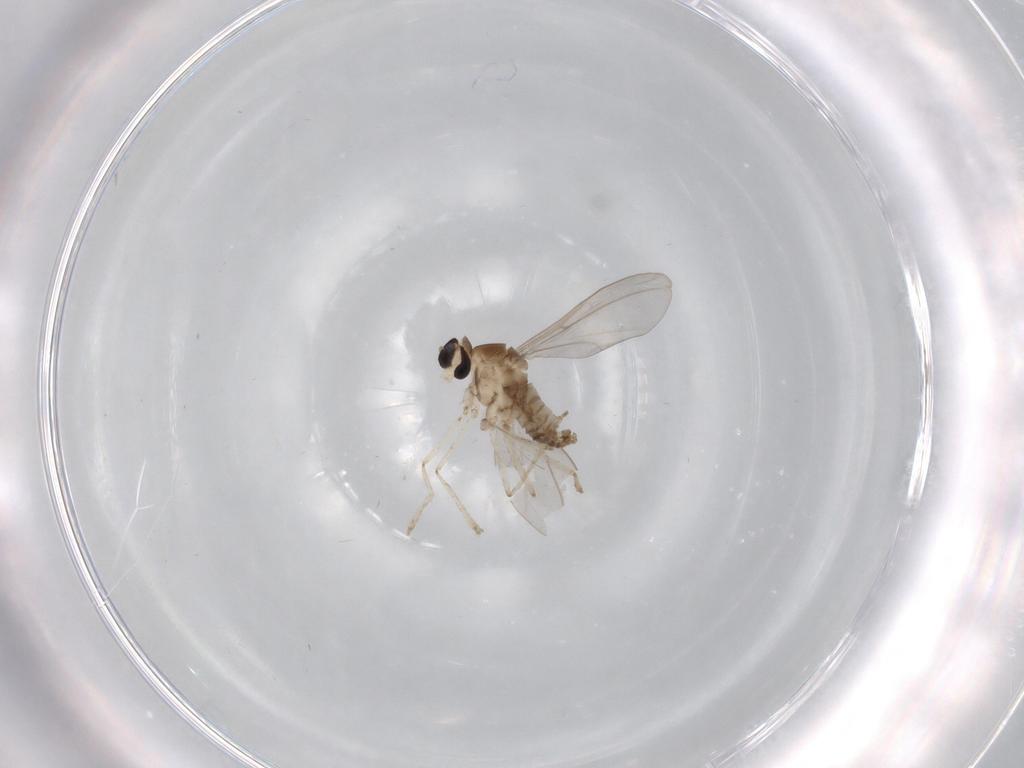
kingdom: Animalia
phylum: Arthropoda
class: Insecta
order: Diptera
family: Cecidomyiidae
